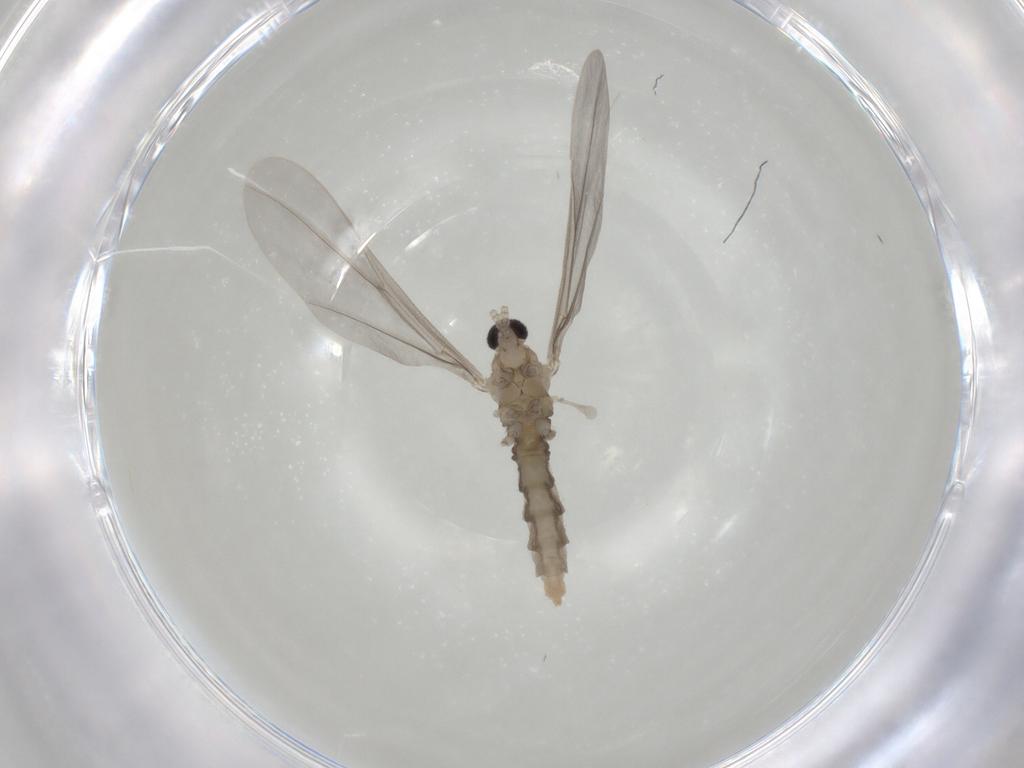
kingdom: Animalia
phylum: Arthropoda
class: Insecta
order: Diptera
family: Cecidomyiidae
